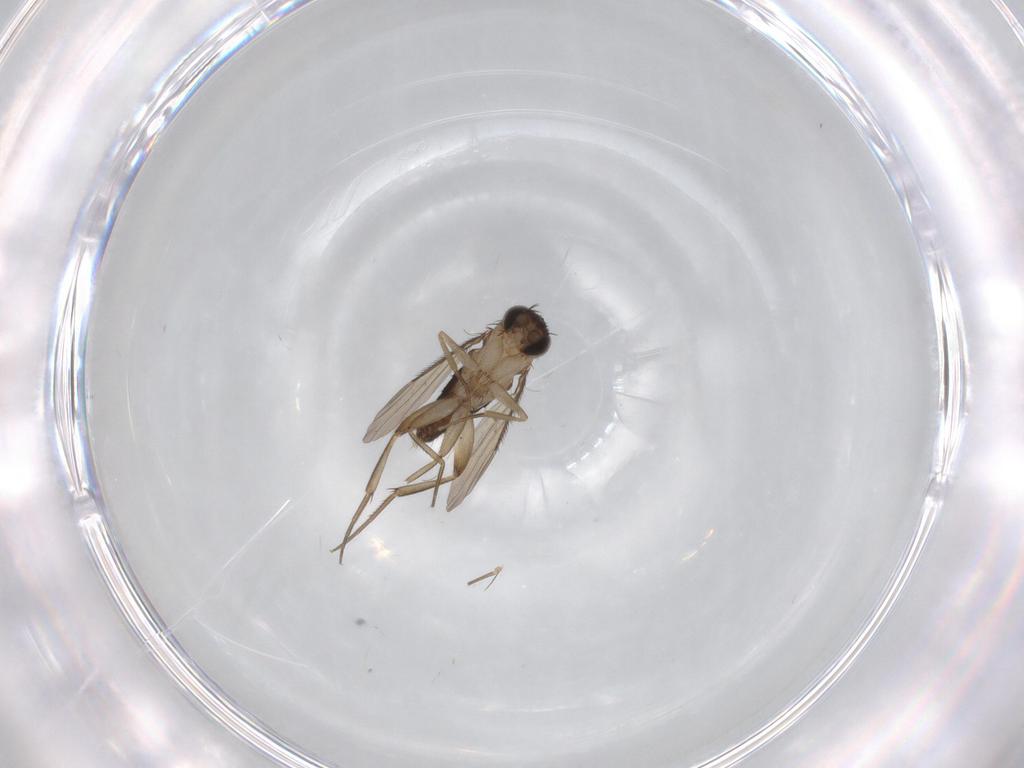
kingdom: Animalia
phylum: Arthropoda
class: Insecta
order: Diptera
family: Phoridae
